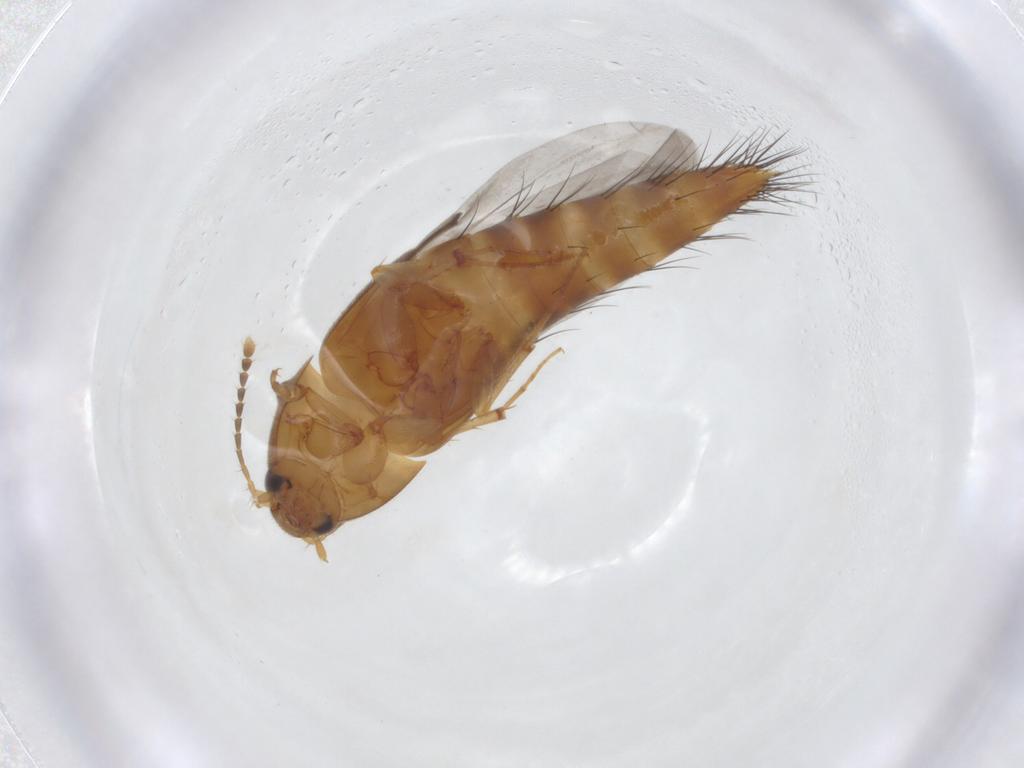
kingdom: Animalia
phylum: Arthropoda
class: Insecta
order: Coleoptera
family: Staphylinidae
